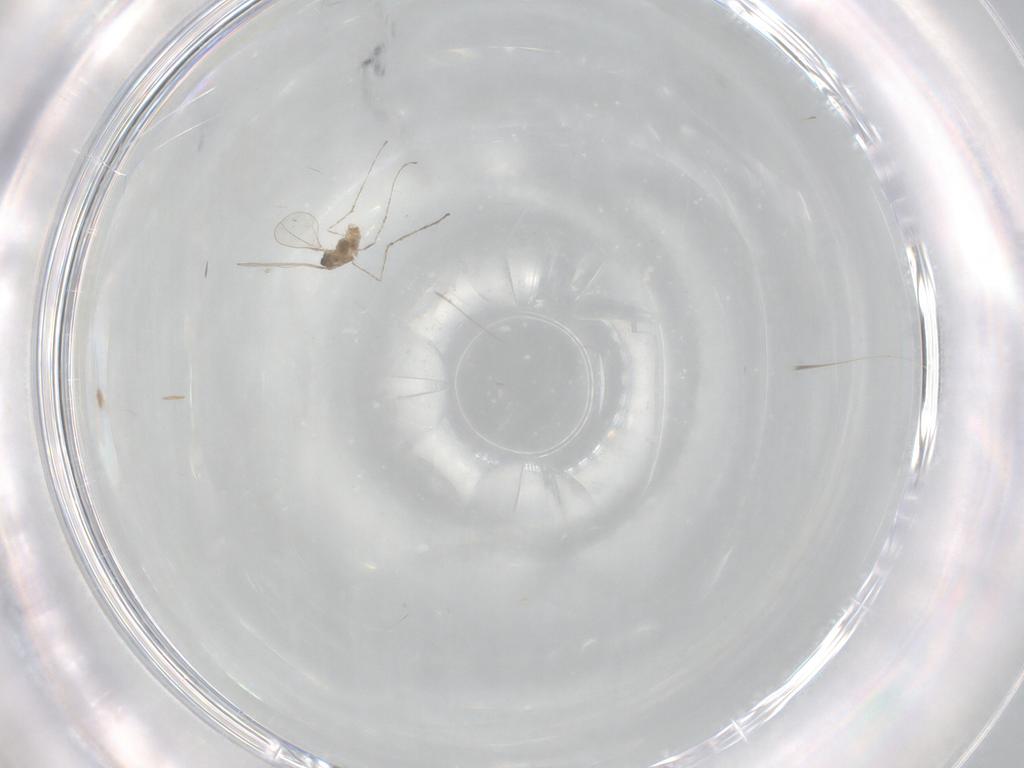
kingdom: Animalia
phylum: Arthropoda
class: Insecta
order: Diptera
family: Cecidomyiidae
